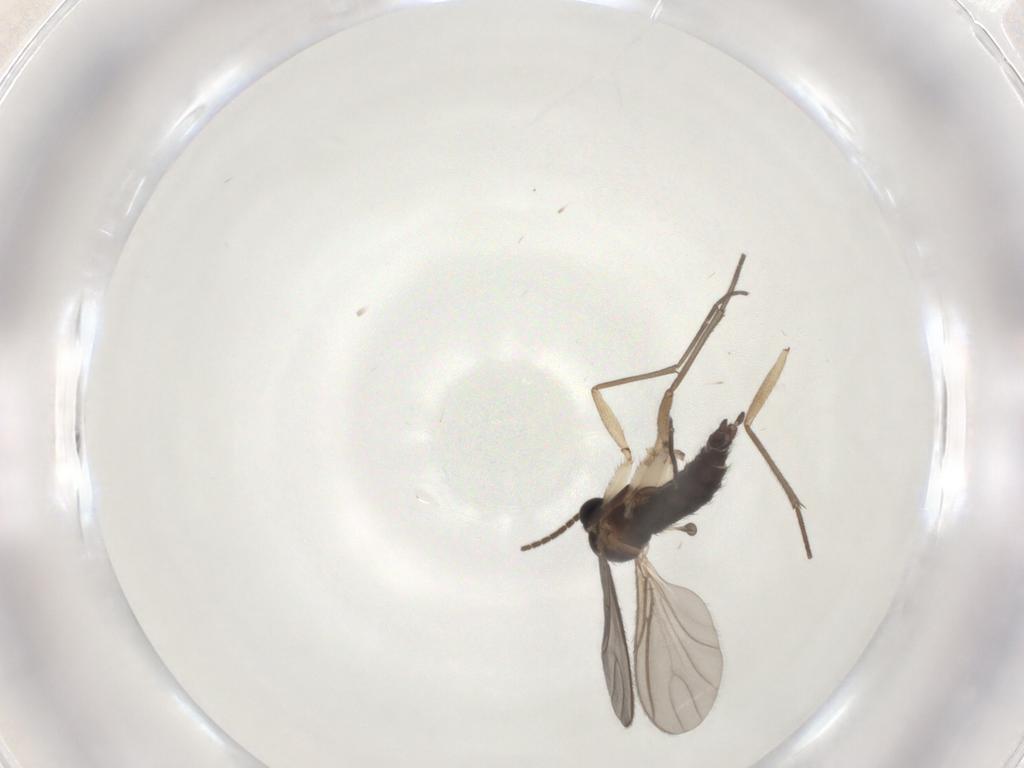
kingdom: Animalia
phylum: Arthropoda
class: Insecta
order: Diptera
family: Sciaridae
